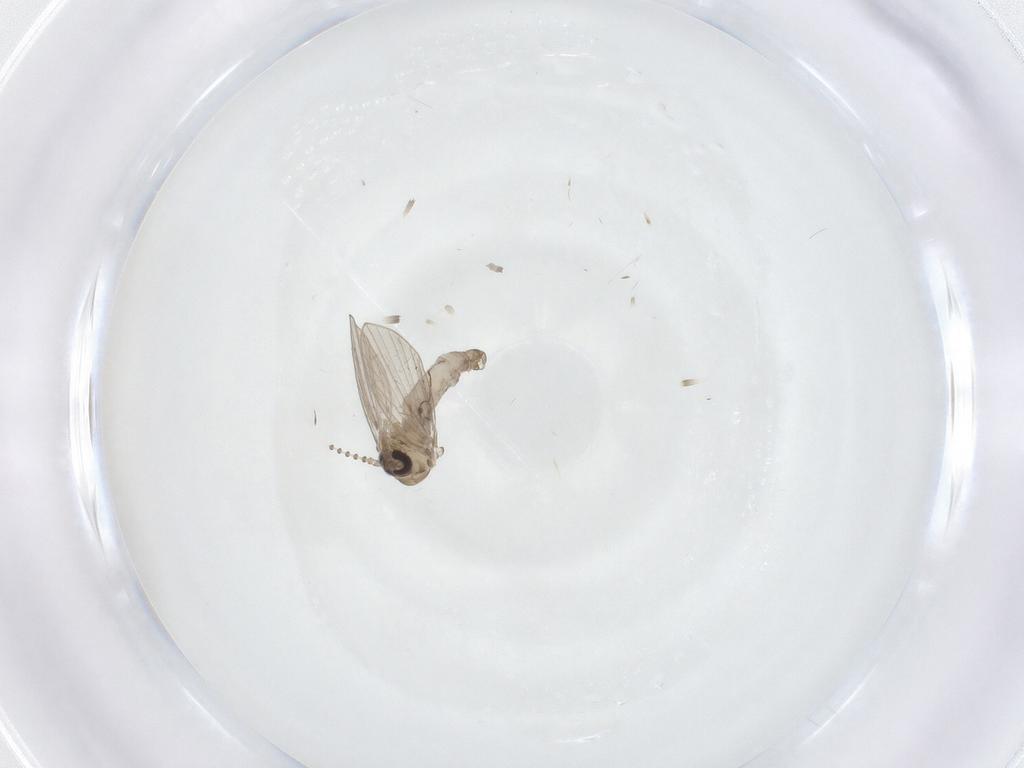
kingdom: Animalia
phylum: Arthropoda
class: Insecta
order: Diptera
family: Psychodidae
